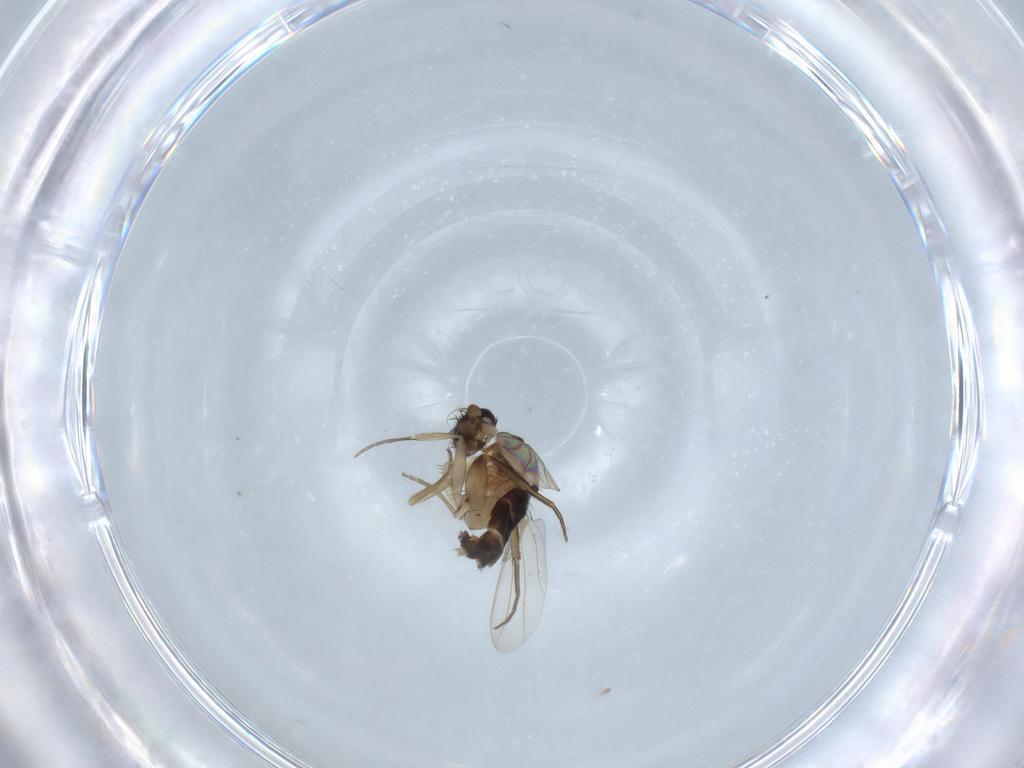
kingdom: Animalia
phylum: Arthropoda
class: Insecta
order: Diptera
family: Phoridae
